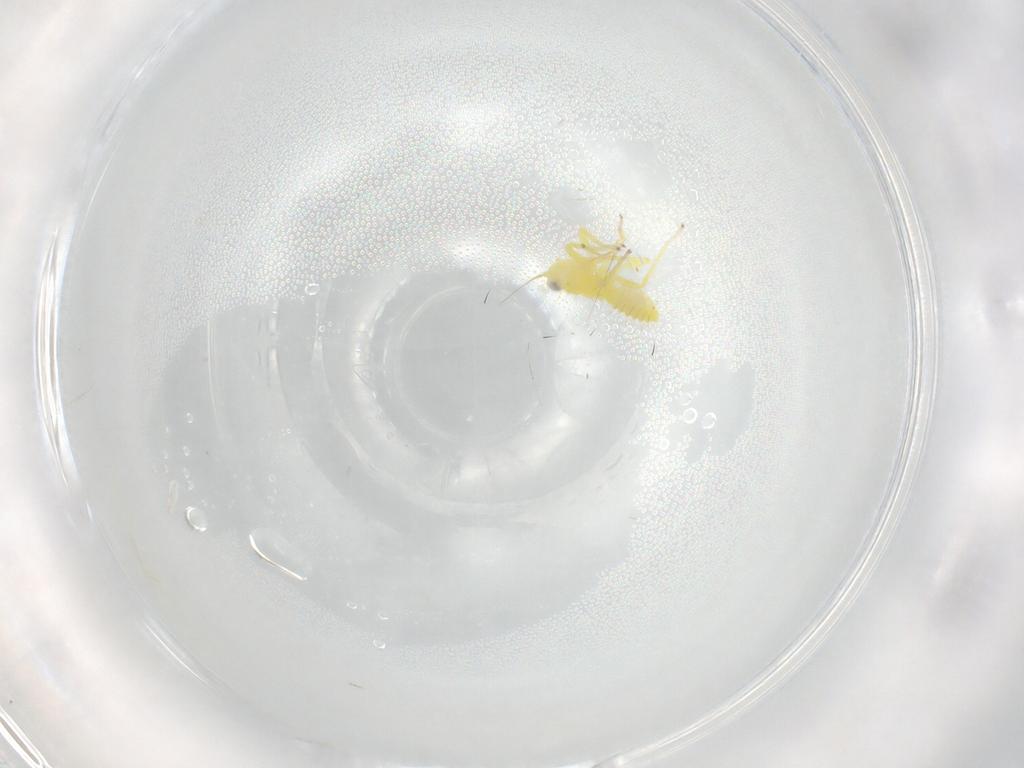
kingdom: Animalia
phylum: Arthropoda
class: Insecta
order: Hemiptera
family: Cicadellidae
